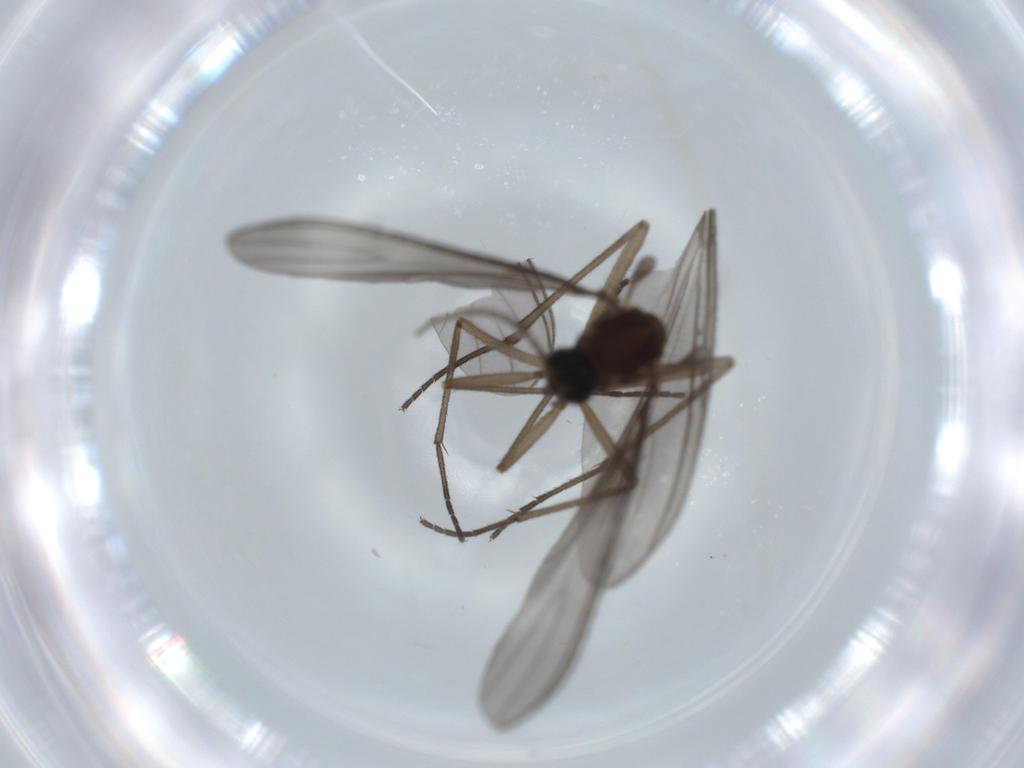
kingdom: Animalia
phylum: Arthropoda
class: Insecta
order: Diptera
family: Sciaridae
